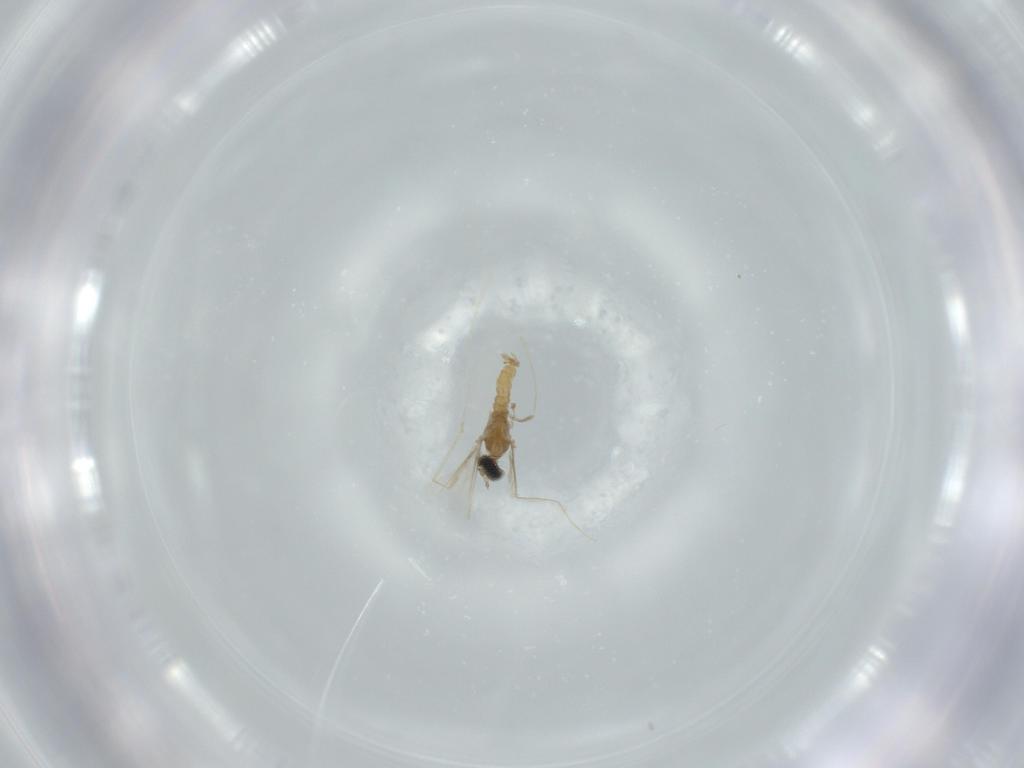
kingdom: Animalia
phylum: Arthropoda
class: Insecta
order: Diptera
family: Cecidomyiidae
